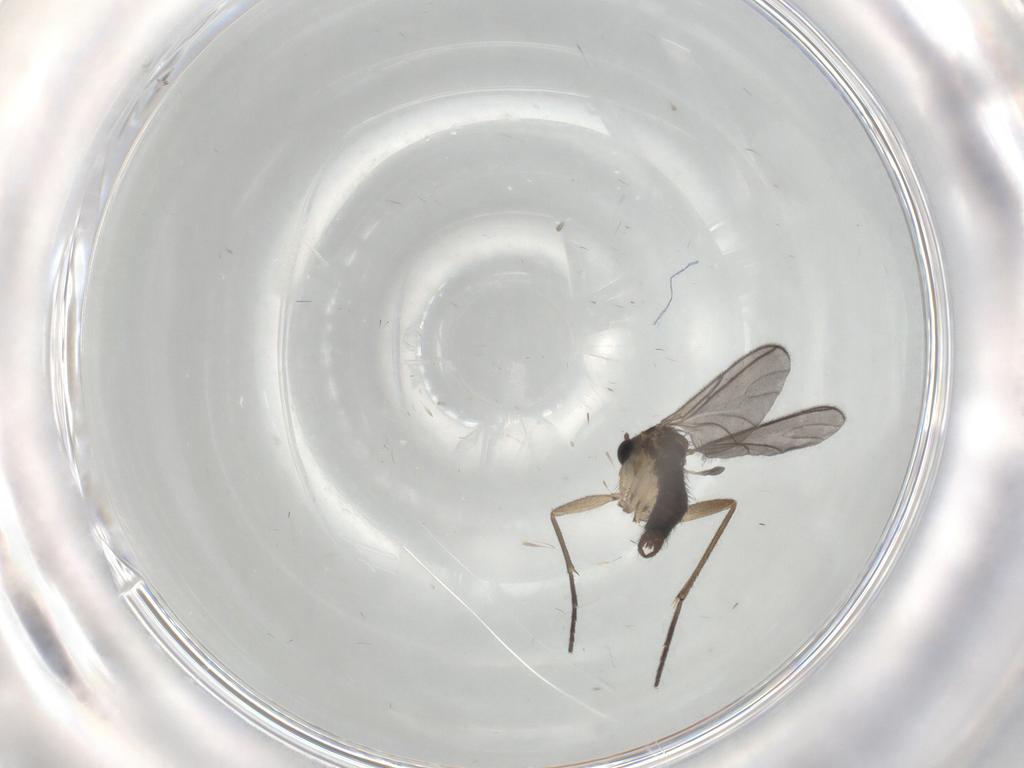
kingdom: Animalia
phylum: Arthropoda
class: Insecta
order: Diptera
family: Sciaridae
